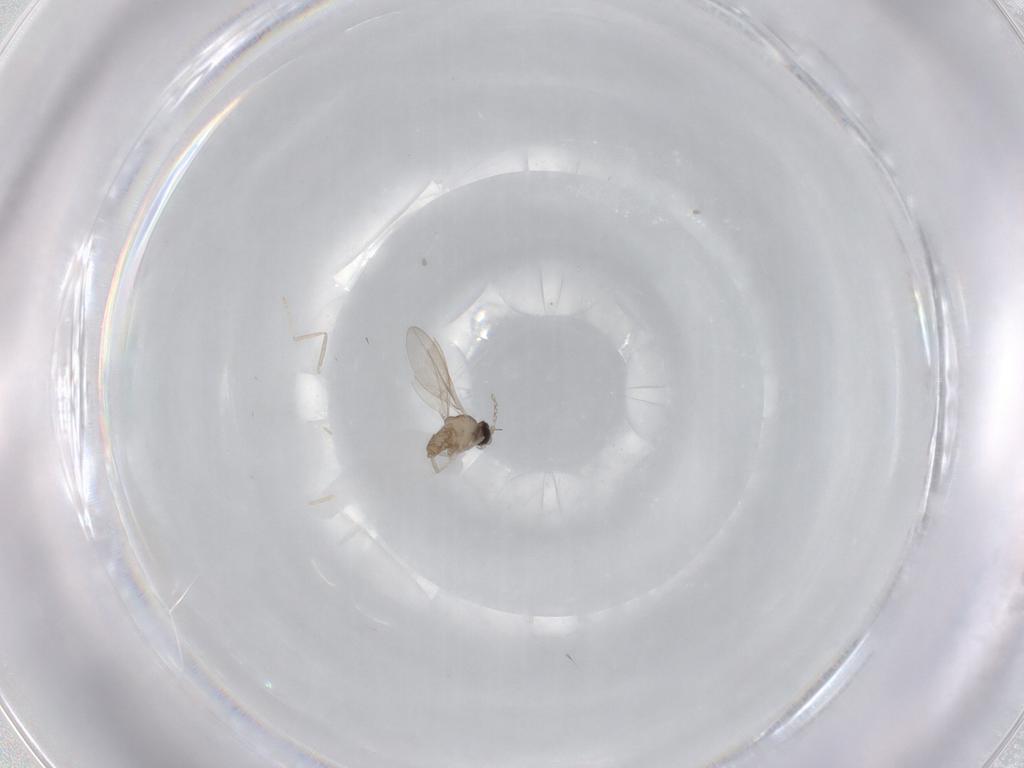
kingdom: Animalia
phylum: Arthropoda
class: Insecta
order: Diptera
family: Cecidomyiidae
